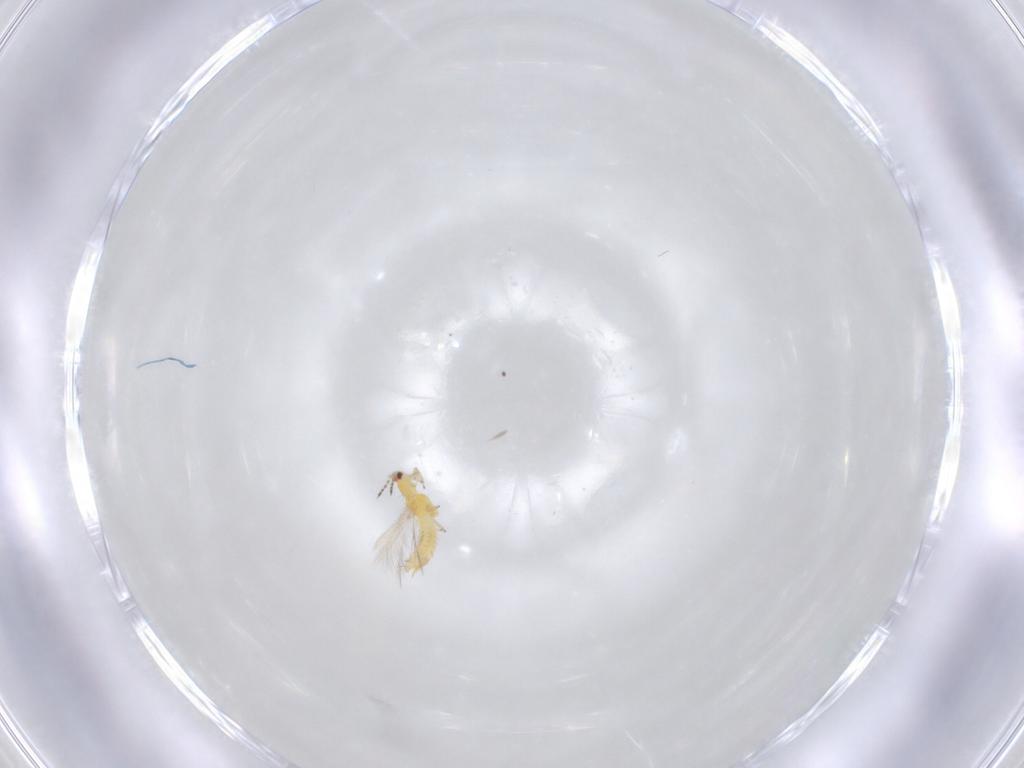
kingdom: Animalia
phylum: Arthropoda
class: Insecta
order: Thysanoptera
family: Thripidae
